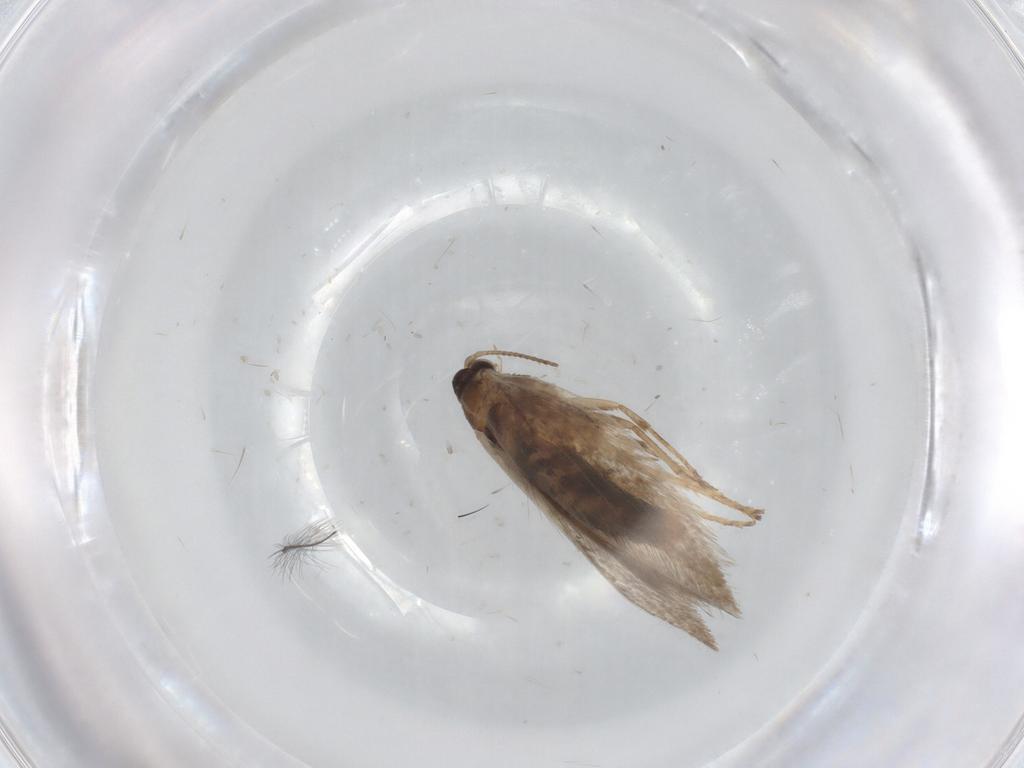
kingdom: Animalia
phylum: Arthropoda
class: Insecta
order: Lepidoptera
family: Nepticulidae
